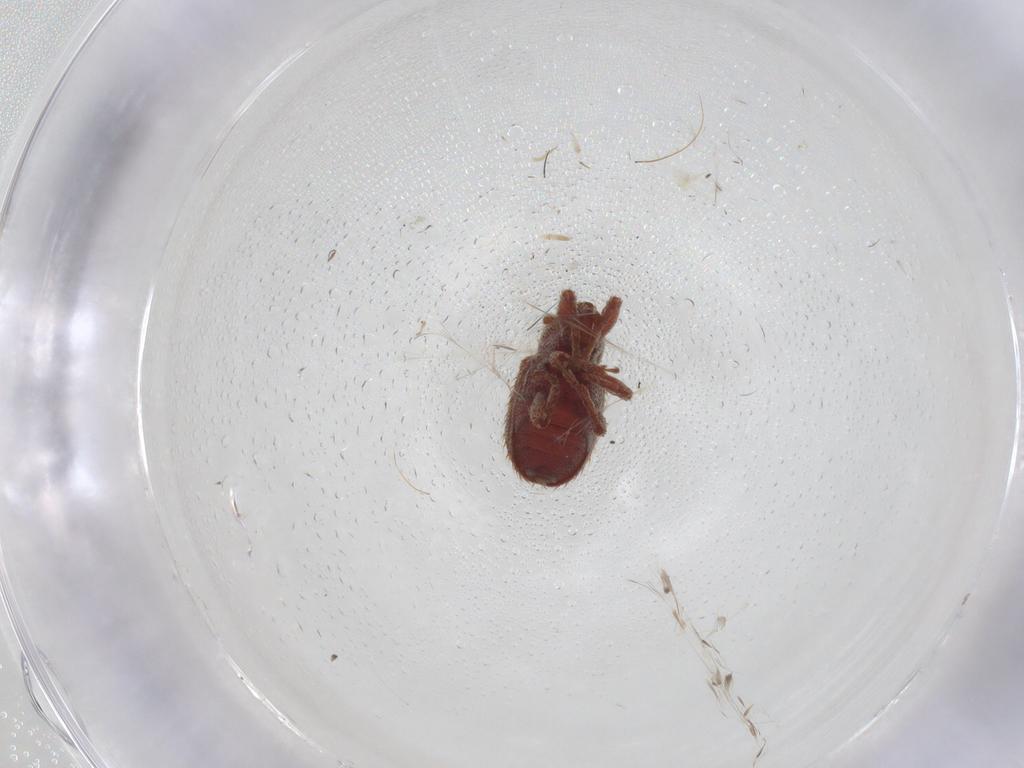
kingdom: Animalia
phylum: Arthropoda
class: Insecta
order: Coleoptera
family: Curculionidae
